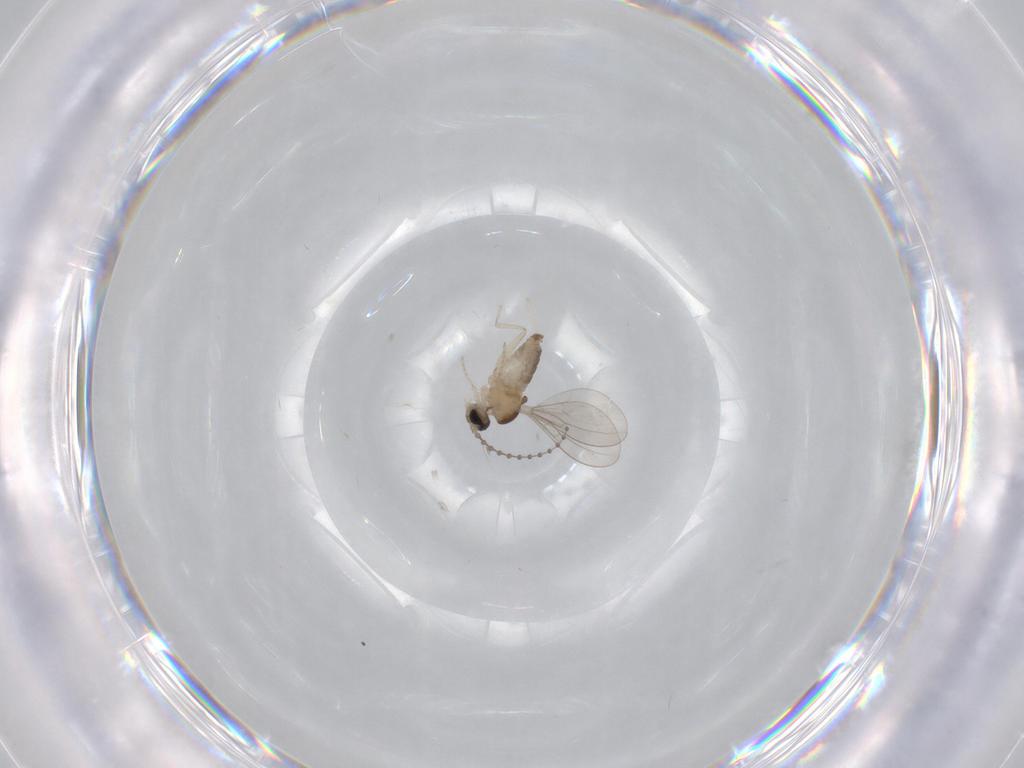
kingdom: Animalia
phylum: Arthropoda
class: Insecta
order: Diptera
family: Cecidomyiidae
